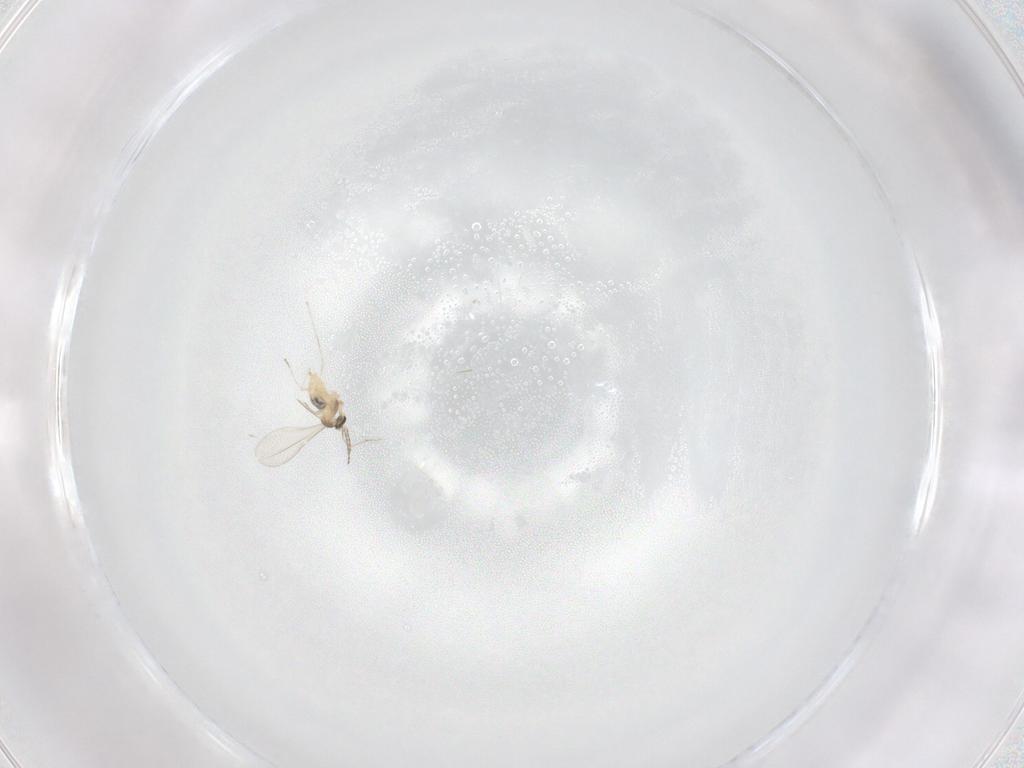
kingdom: Animalia
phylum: Arthropoda
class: Insecta
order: Diptera
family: Cecidomyiidae
